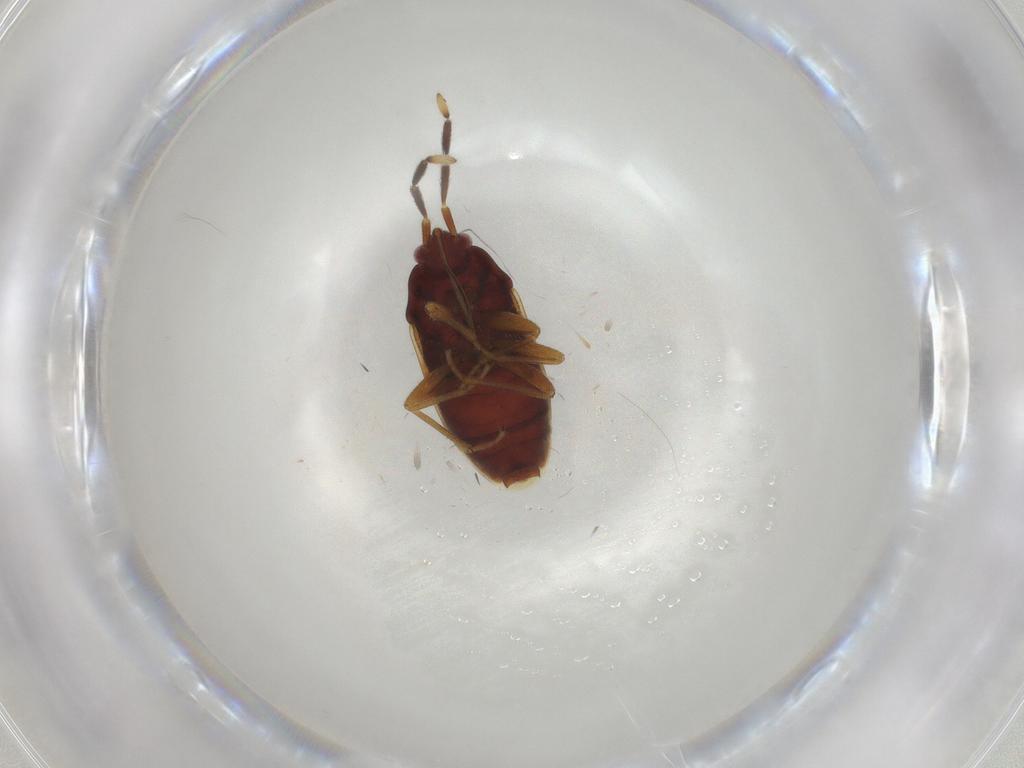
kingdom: Animalia
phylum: Arthropoda
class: Insecta
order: Hemiptera
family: Rhyparochromidae
